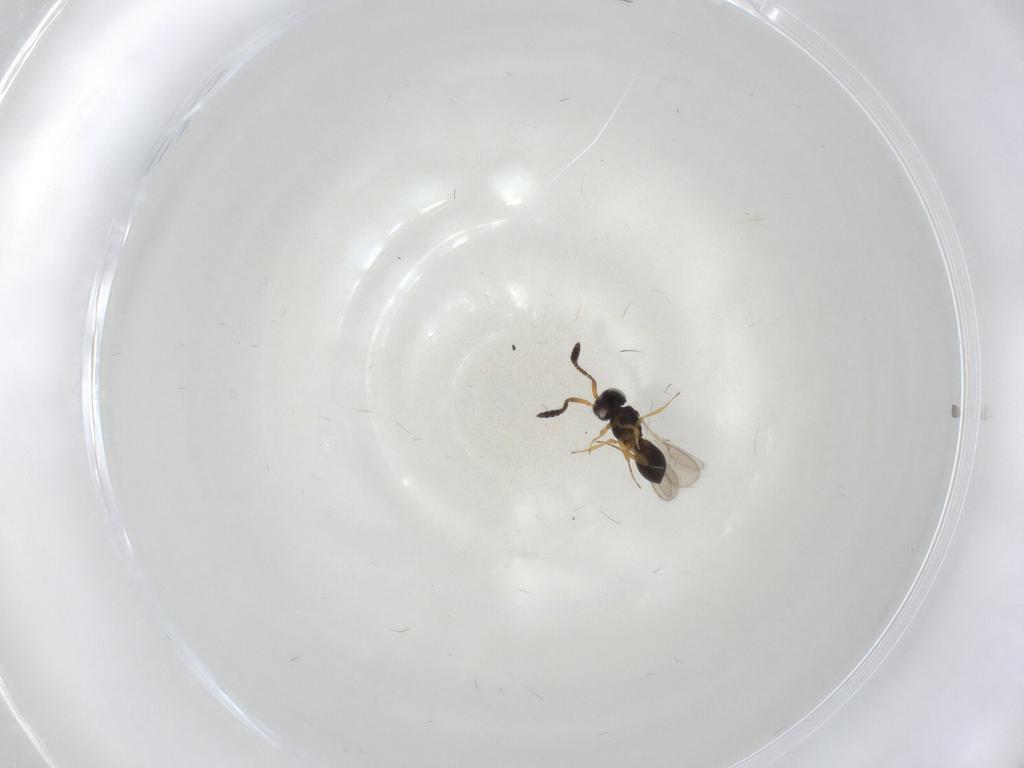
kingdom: Animalia
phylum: Arthropoda
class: Insecta
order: Hymenoptera
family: Scelionidae
